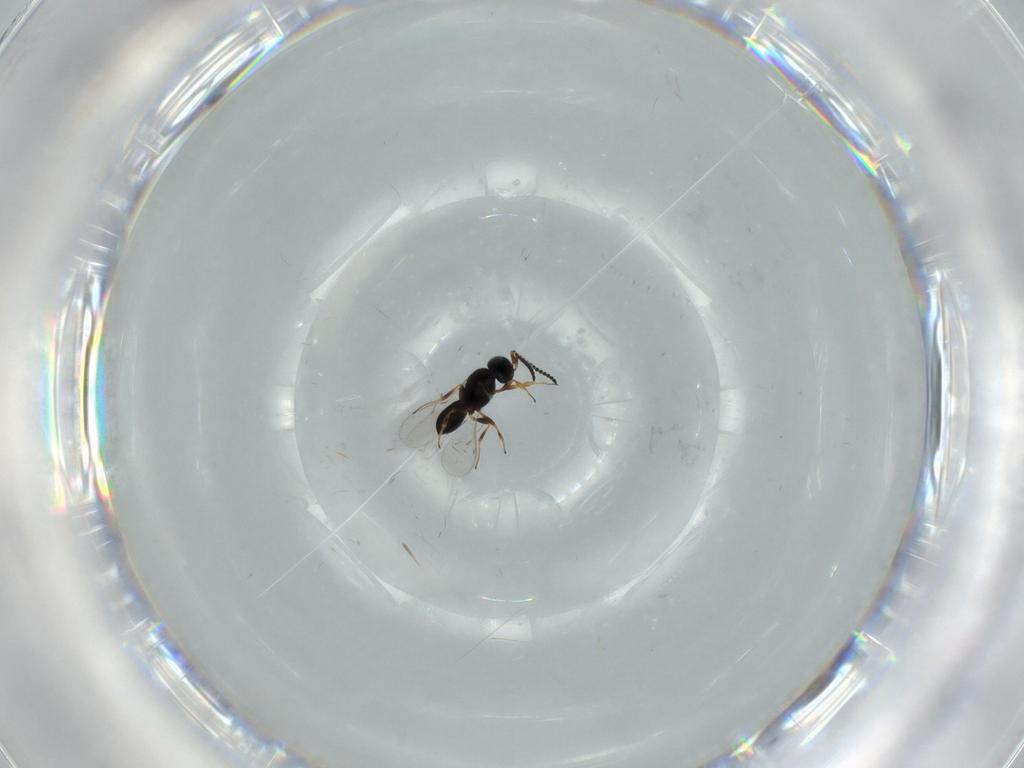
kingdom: Animalia
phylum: Arthropoda
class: Insecta
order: Hymenoptera
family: Scelionidae
